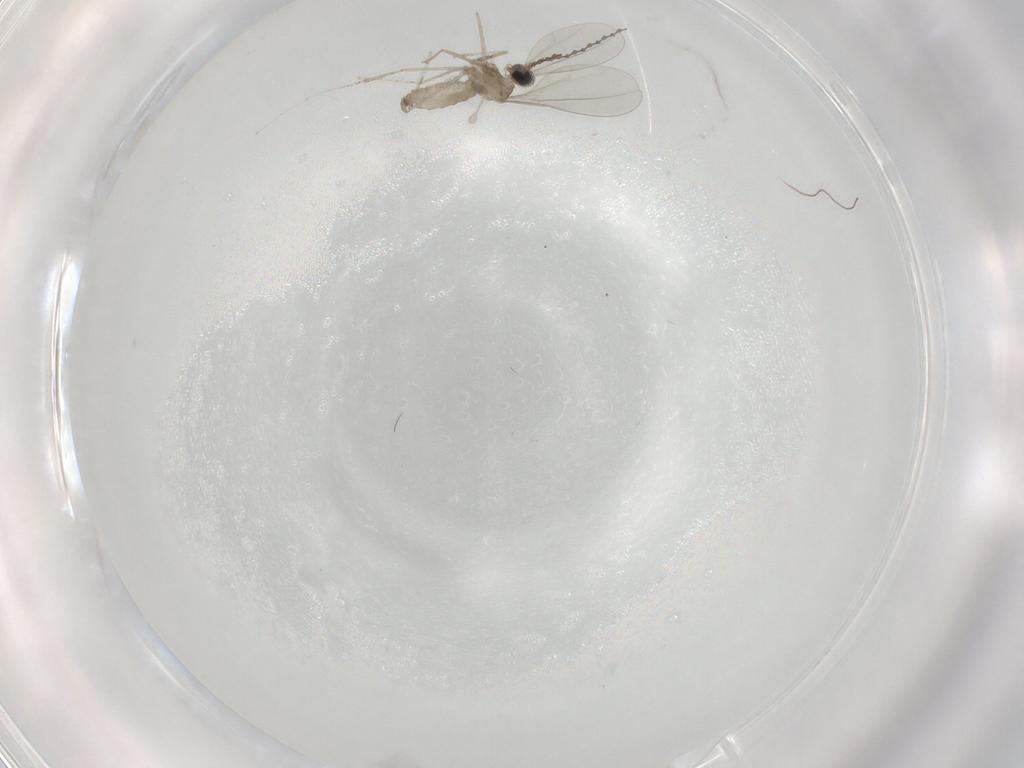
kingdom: Animalia
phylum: Arthropoda
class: Insecta
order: Diptera
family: Cecidomyiidae
